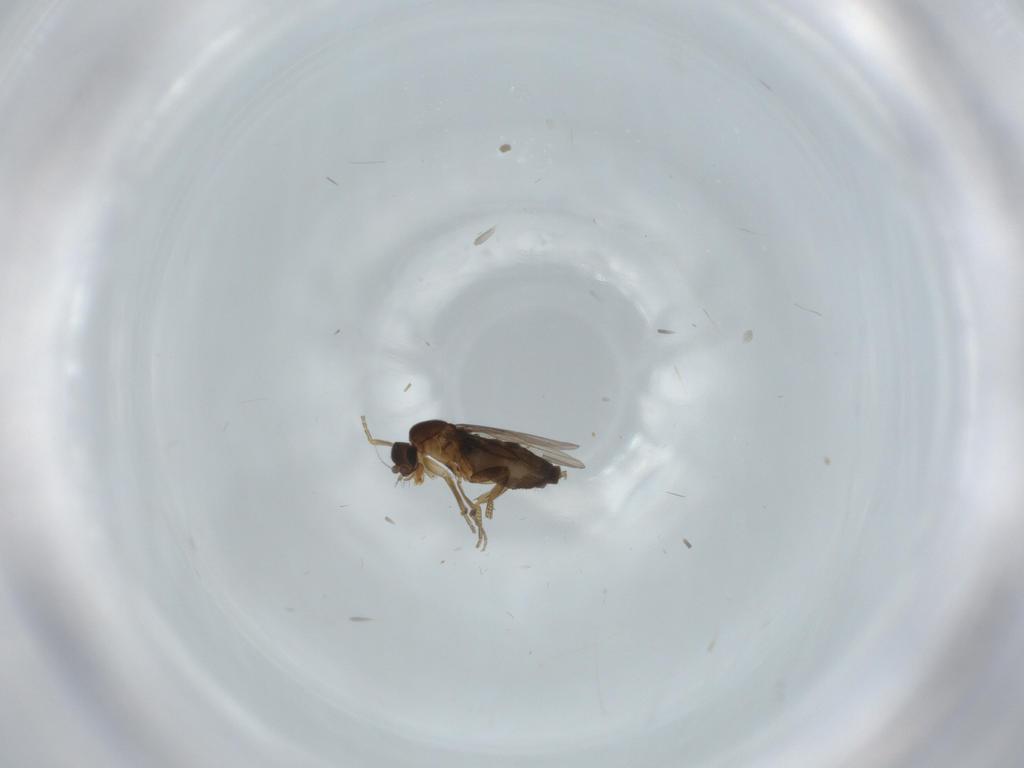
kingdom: Animalia
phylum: Arthropoda
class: Insecta
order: Diptera
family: Phoridae
